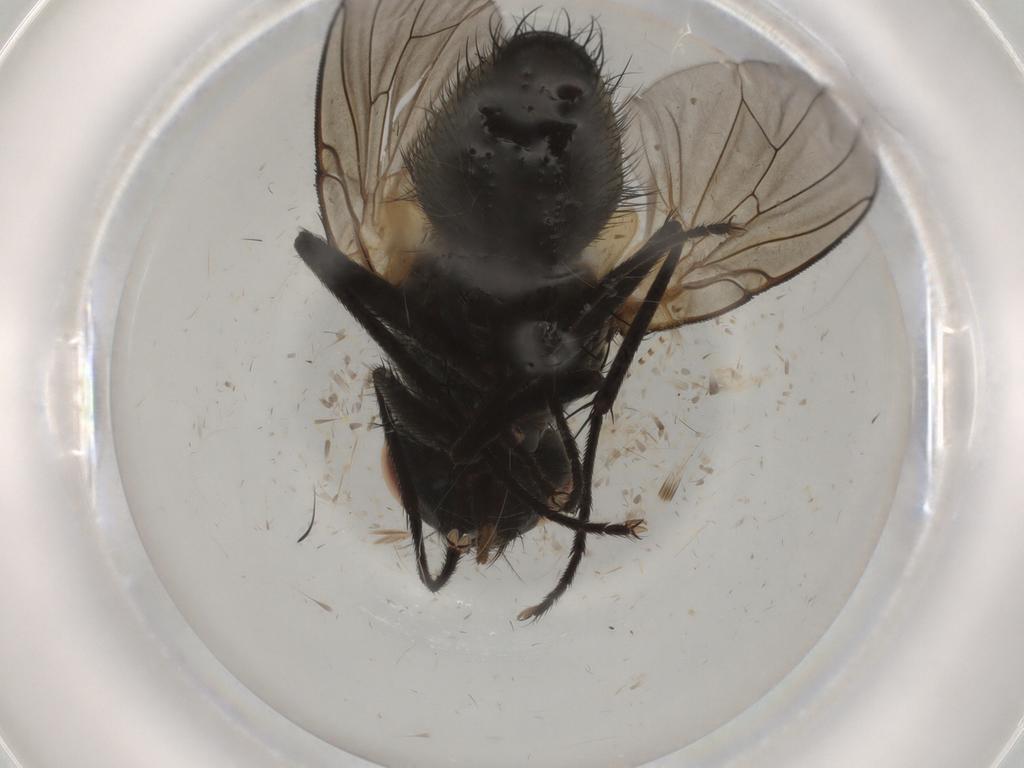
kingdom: Animalia
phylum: Arthropoda
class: Insecta
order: Diptera
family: Muscidae
